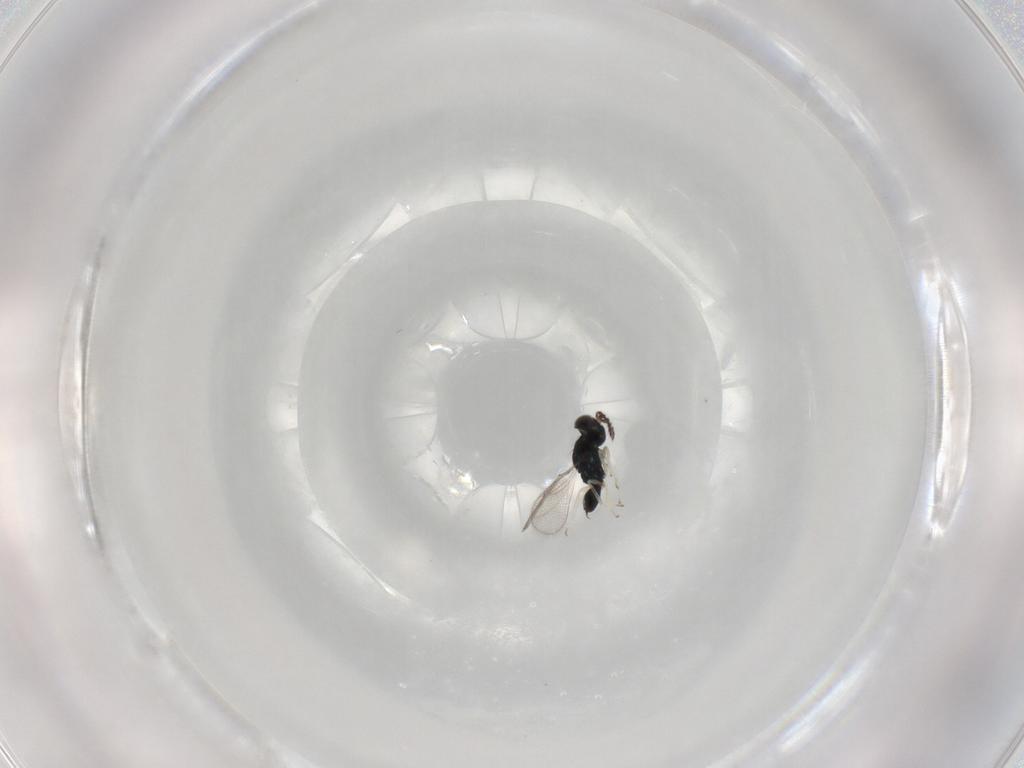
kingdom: Animalia
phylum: Arthropoda
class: Insecta
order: Hymenoptera
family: Eulophidae
